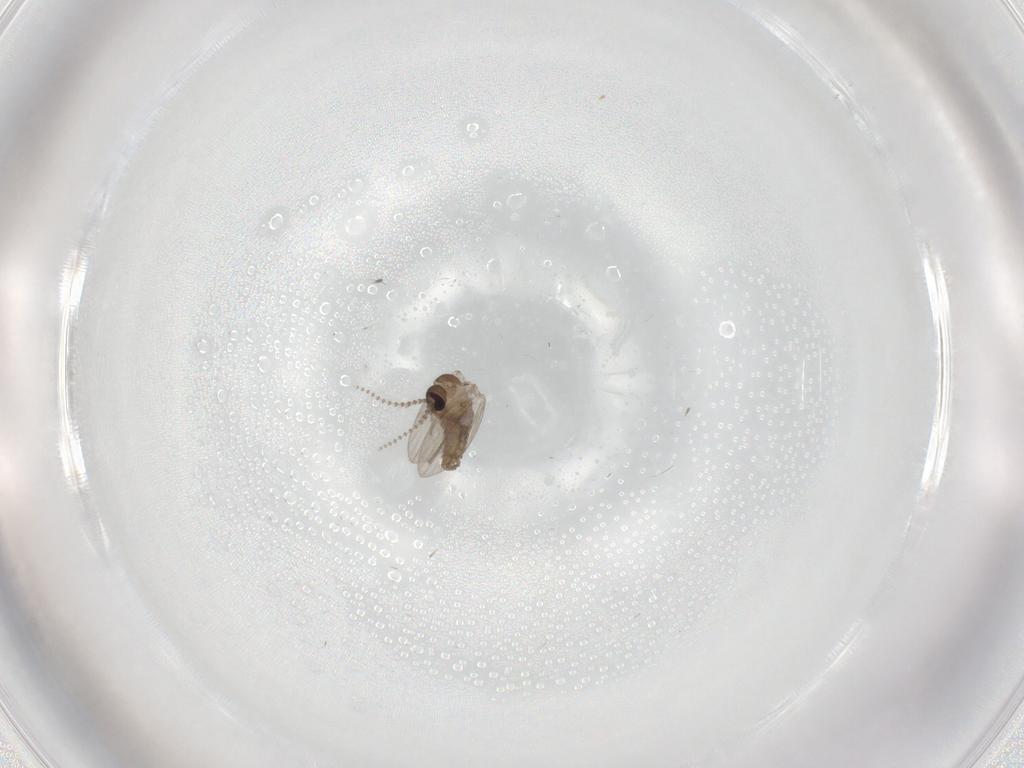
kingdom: Animalia
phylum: Arthropoda
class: Insecta
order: Diptera
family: Psychodidae
